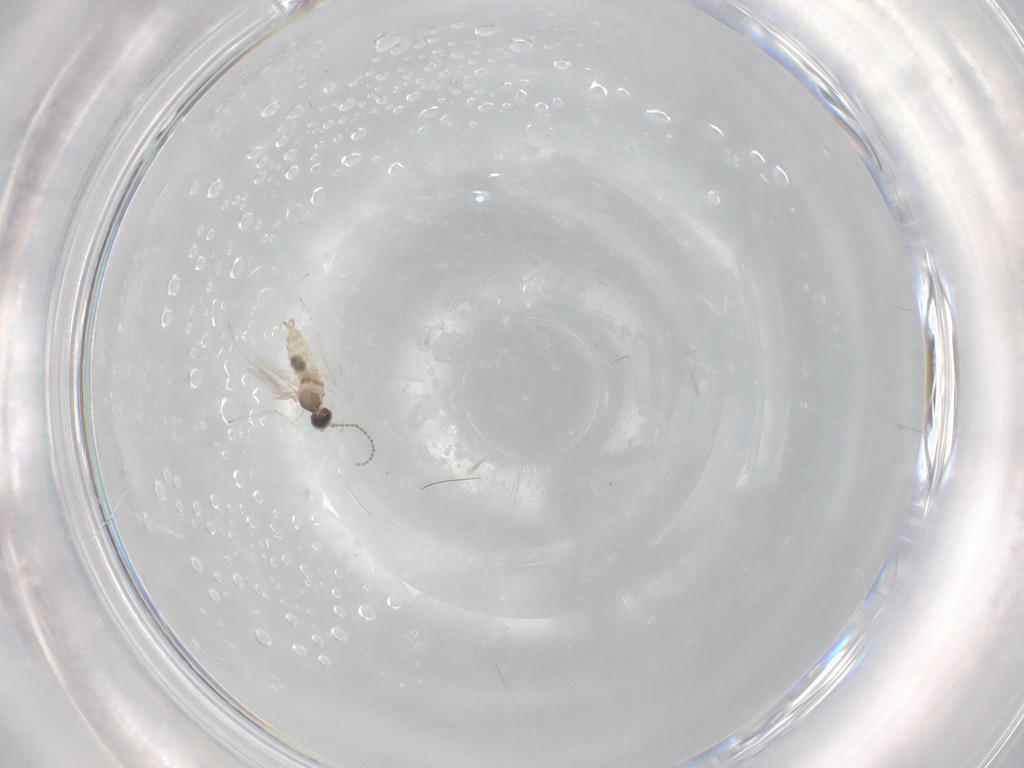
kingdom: Animalia
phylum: Arthropoda
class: Insecta
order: Diptera
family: Cecidomyiidae
